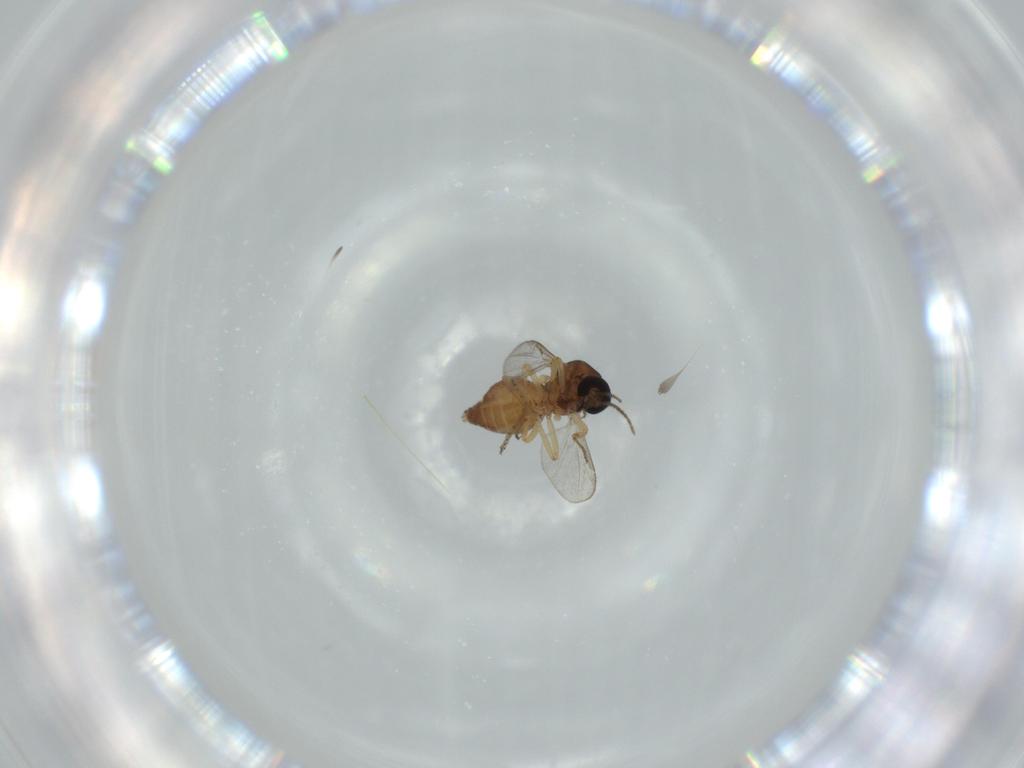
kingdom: Animalia
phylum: Arthropoda
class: Insecta
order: Diptera
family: Ceratopogonidae
